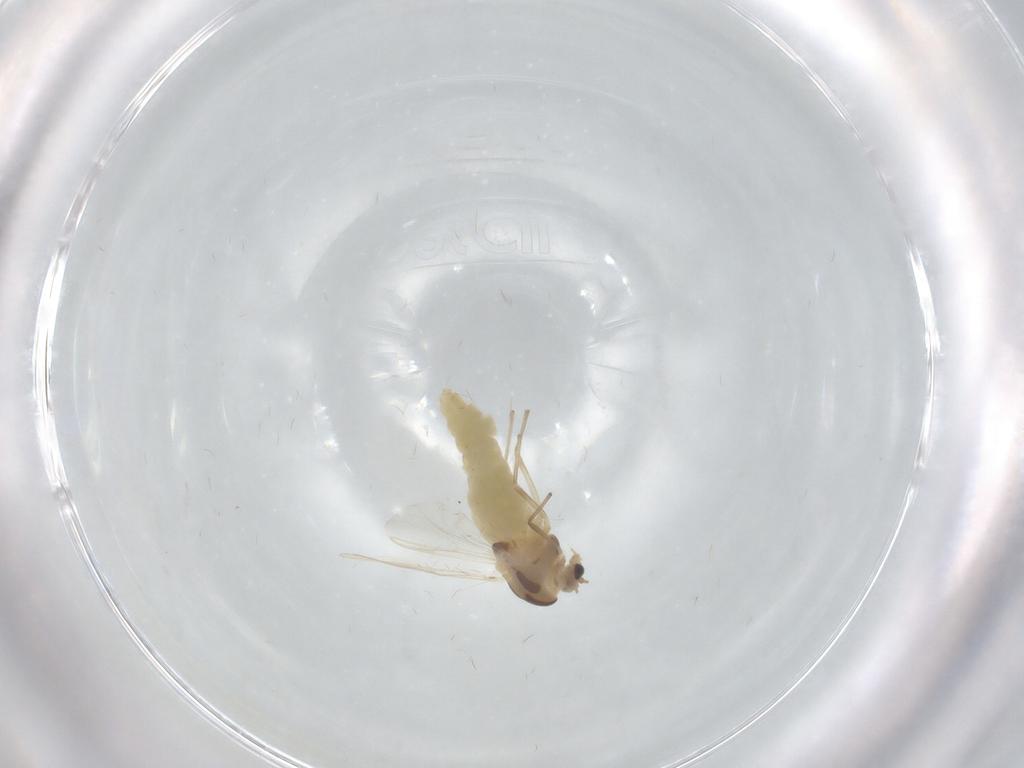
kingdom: Animalia
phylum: Arthropoda
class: Insecta
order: Diptera
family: Chironomidae
